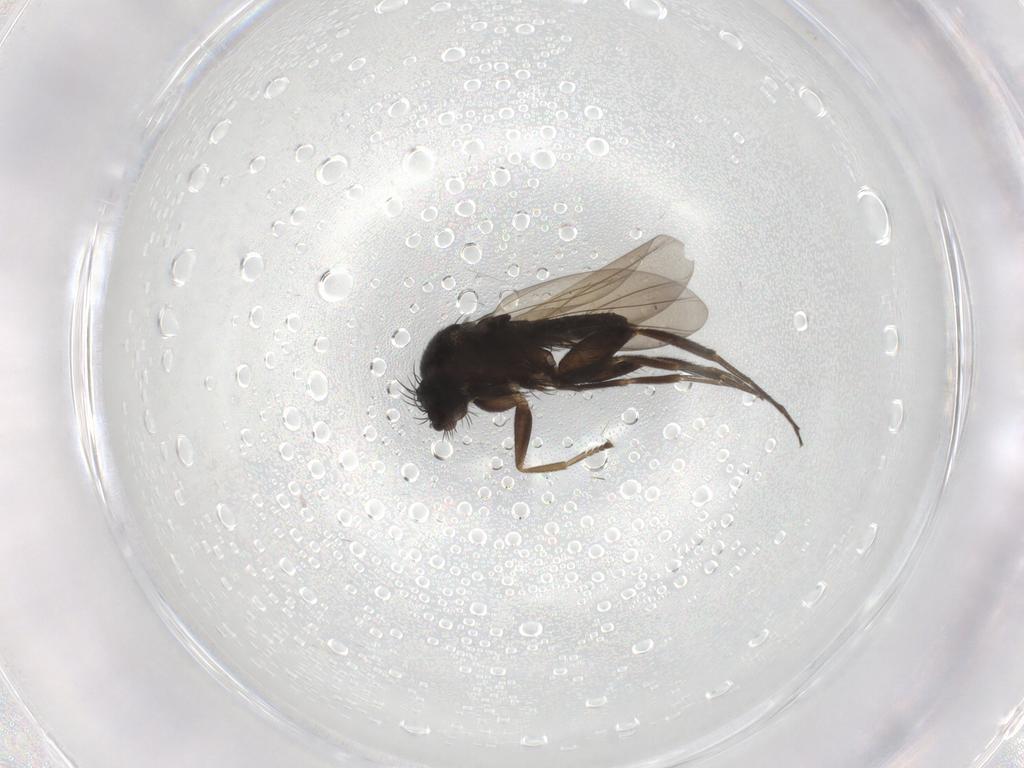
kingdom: Animalia
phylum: Arthropoda
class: Insecta
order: Diptera
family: Phoridae
